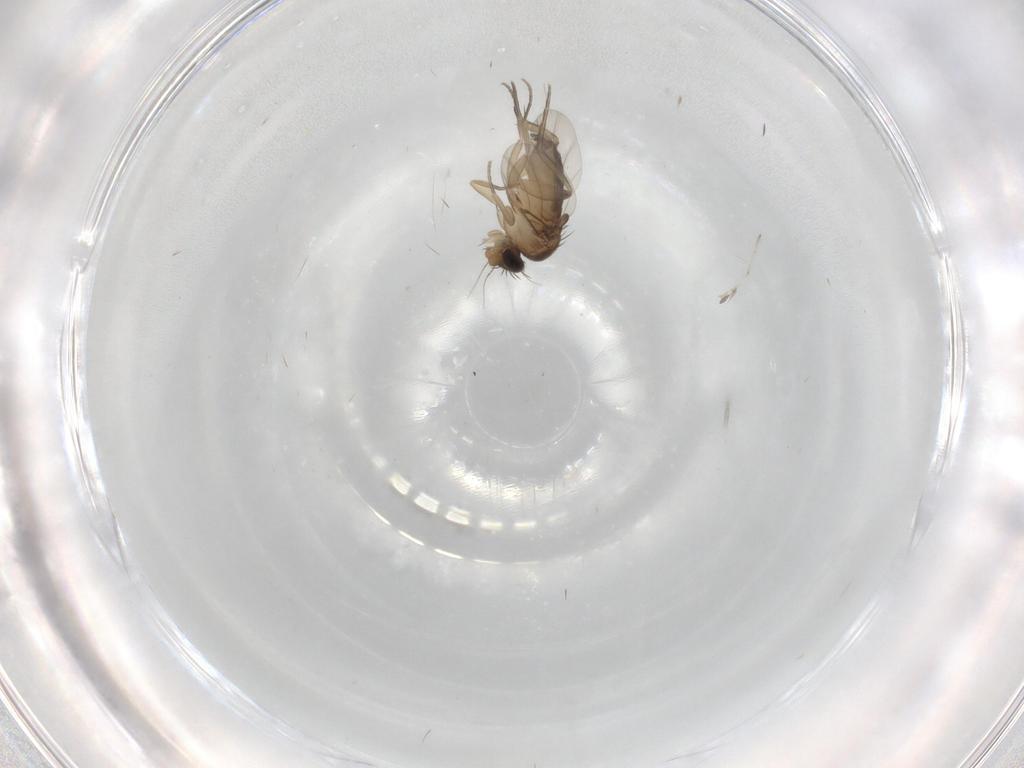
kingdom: Animalia
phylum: Arthropoda
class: Insecta
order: Diptera
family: Phoridae
